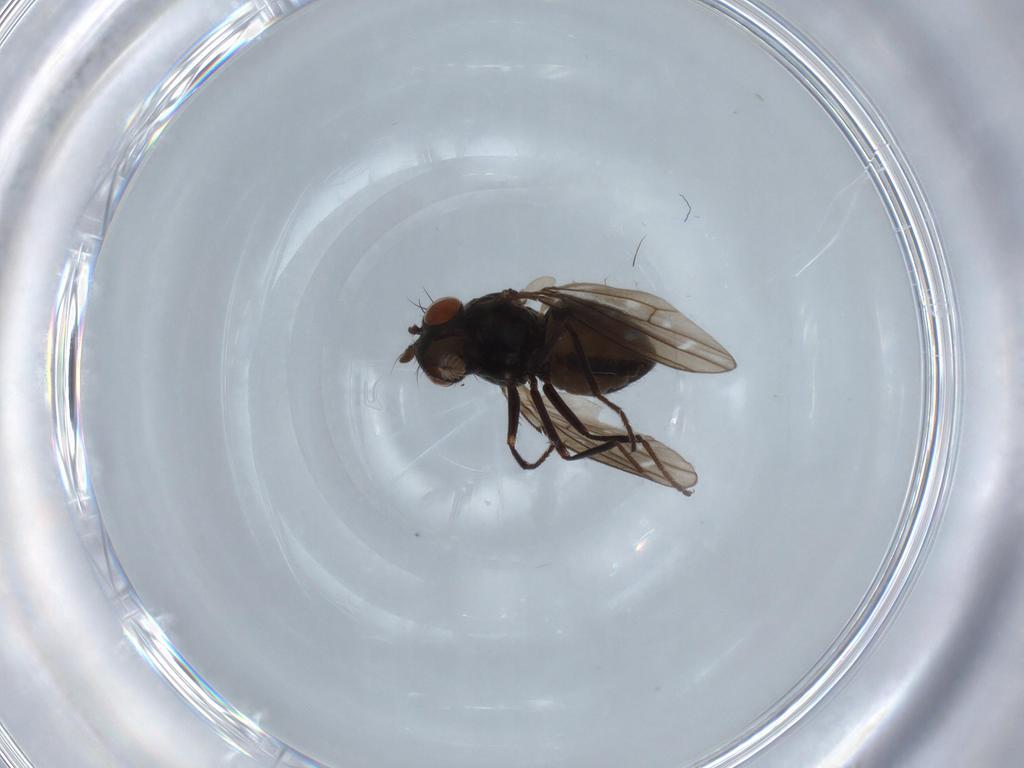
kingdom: Animalia
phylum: Arthropoda
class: Insecta
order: Diptera
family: Ephydridae
